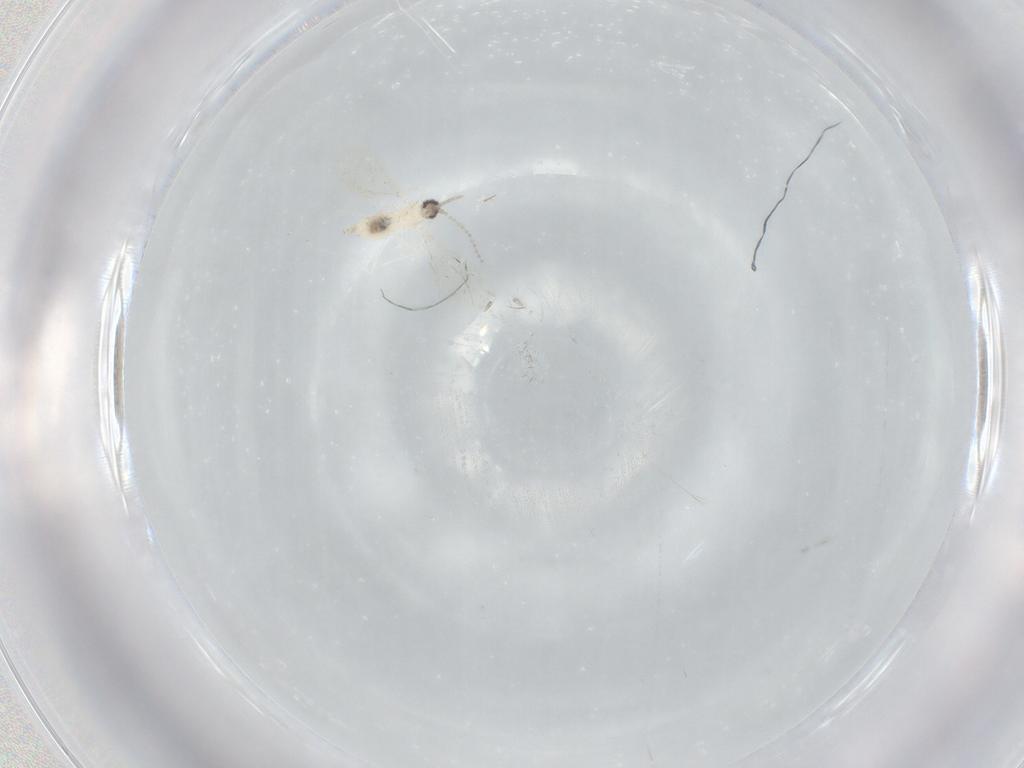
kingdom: Animalia
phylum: Arthropoda
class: Insecta
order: Diptera
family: Cecidomyiidae
